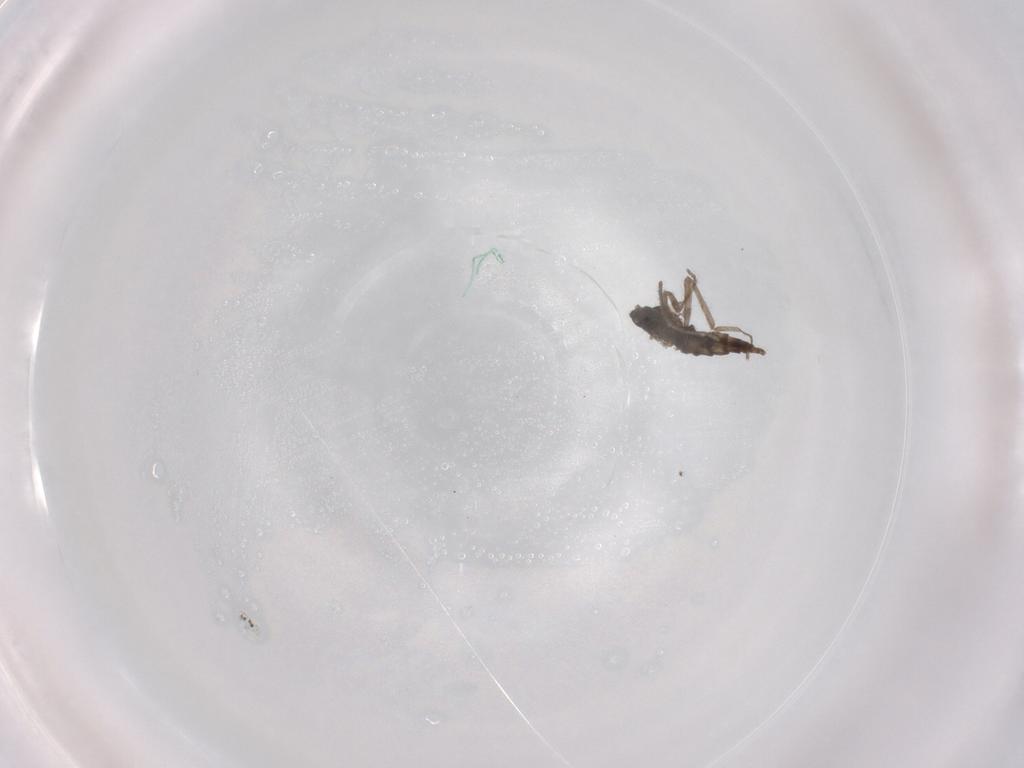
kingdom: Animalia
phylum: Arthropoda
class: Insecta
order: Diptera
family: Cecidomyiidae
